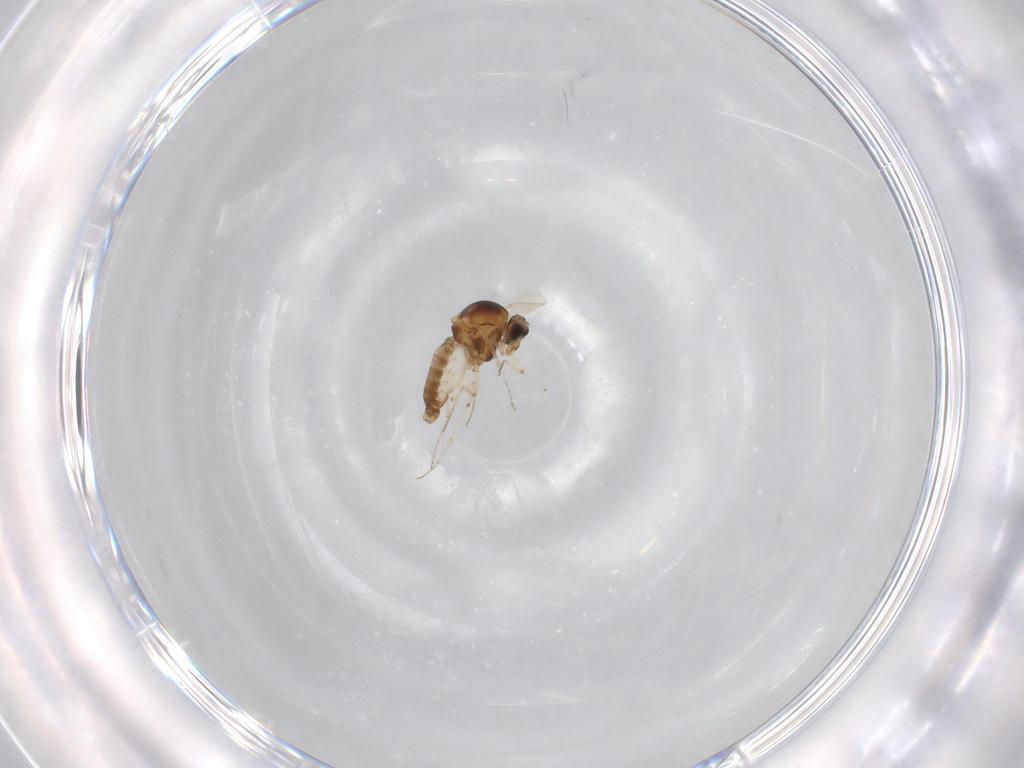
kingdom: Animalia
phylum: Arthropoda
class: Insecta
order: Diptera
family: Ceratopogonidae
